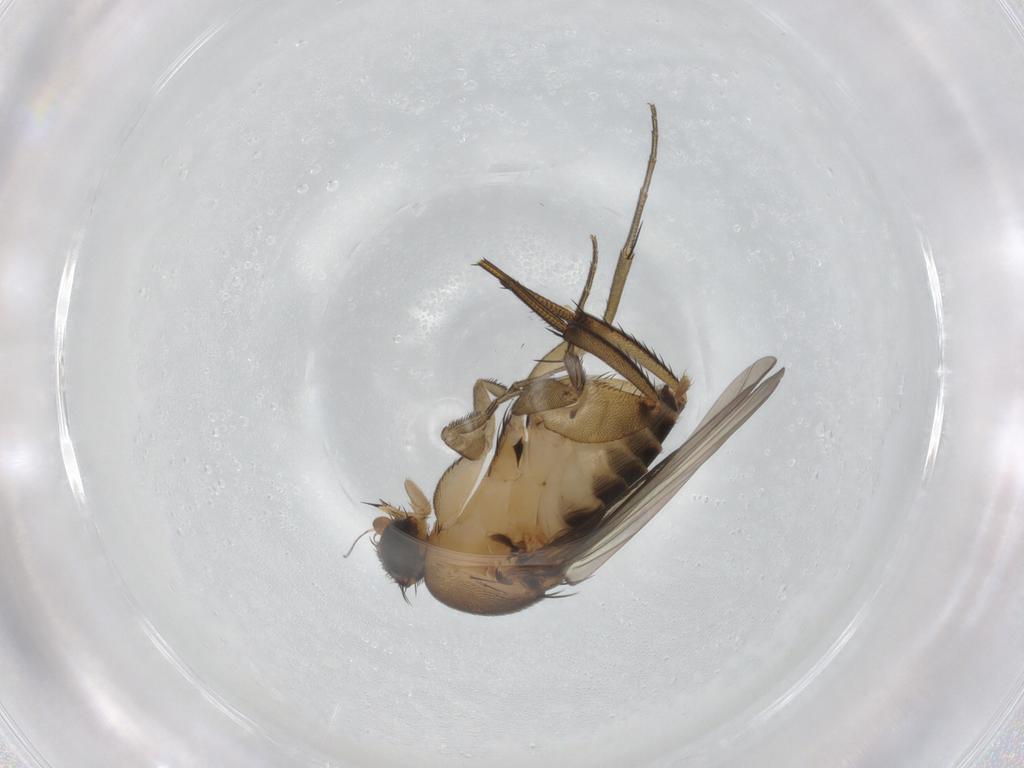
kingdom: Animalia
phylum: Arthropoda
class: Insecta
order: Diptera
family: Phoridae
